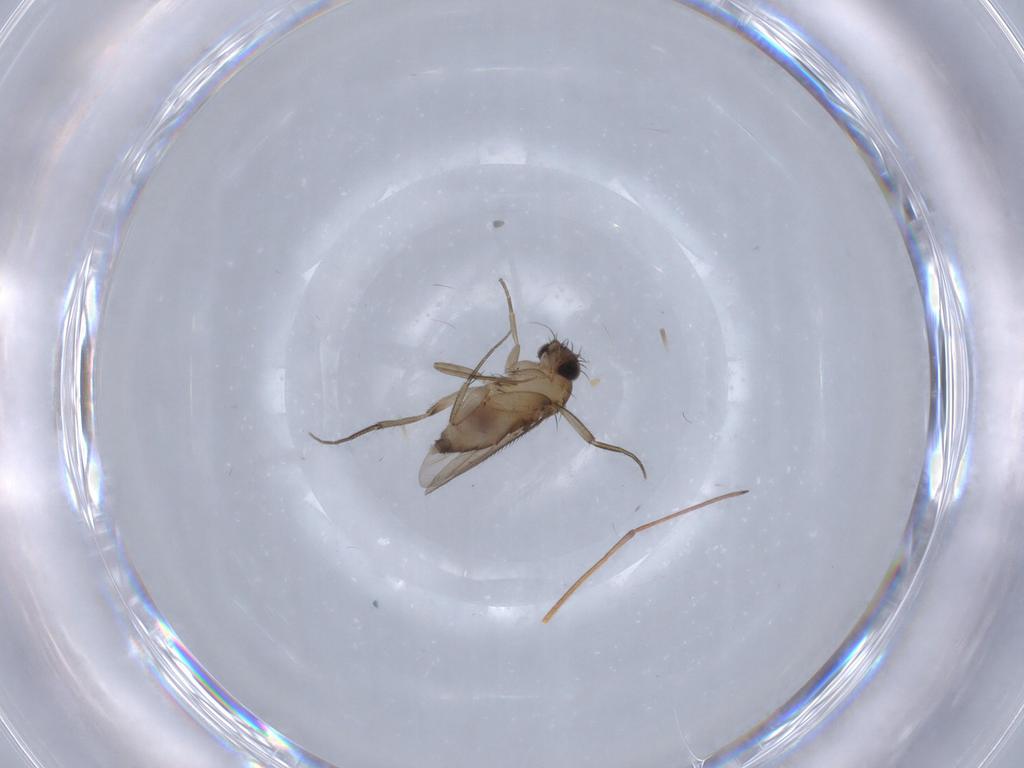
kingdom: Animalia
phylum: Arthropoda
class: Insecta
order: Diptera
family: Phoridae
